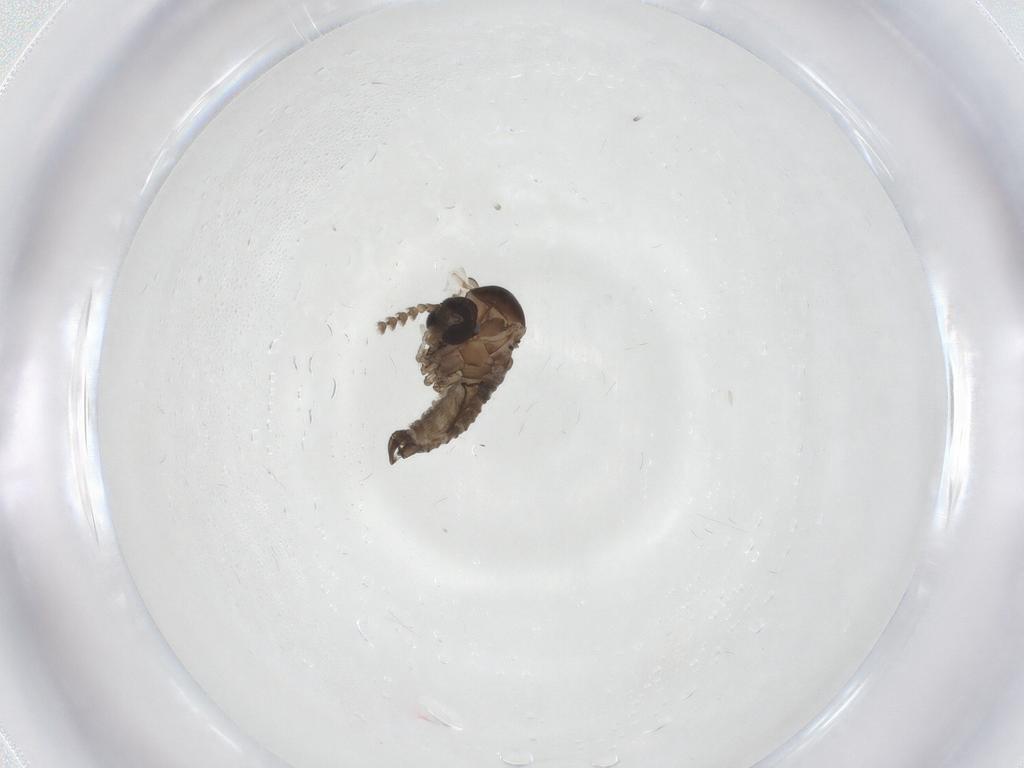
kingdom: Animalia
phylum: Arthropoda
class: Insecta
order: Diptera
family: Psychodidae
